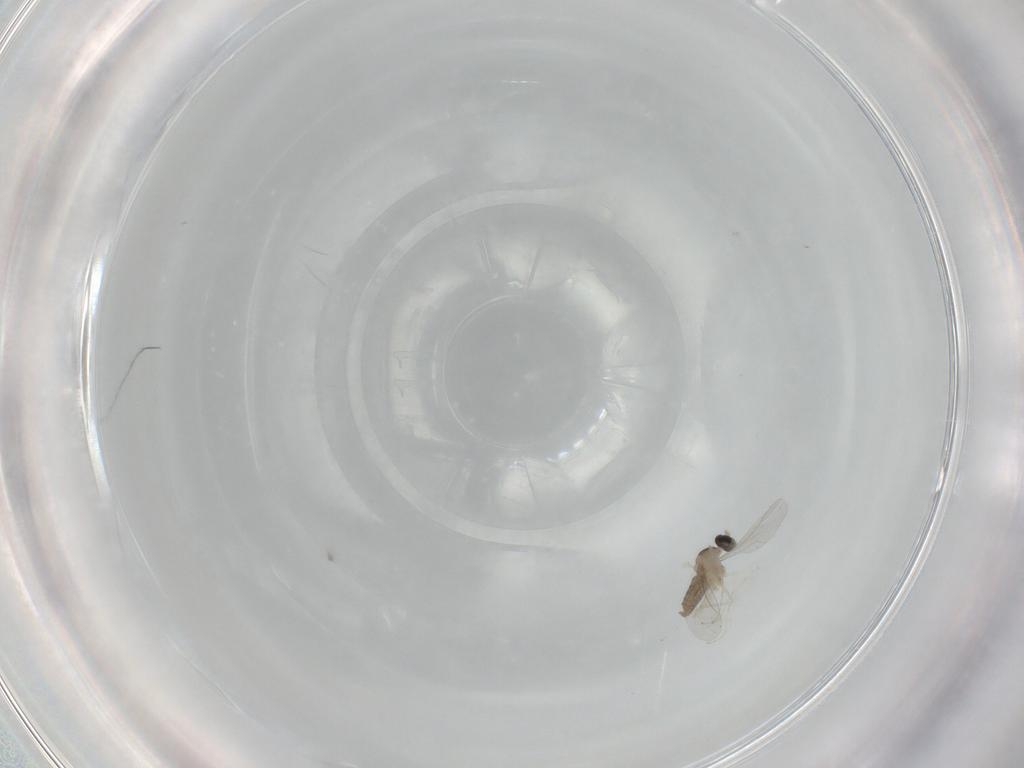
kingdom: Animalia
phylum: Arthropoda
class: Insecta
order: Diptera
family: Cecidomyiidae
